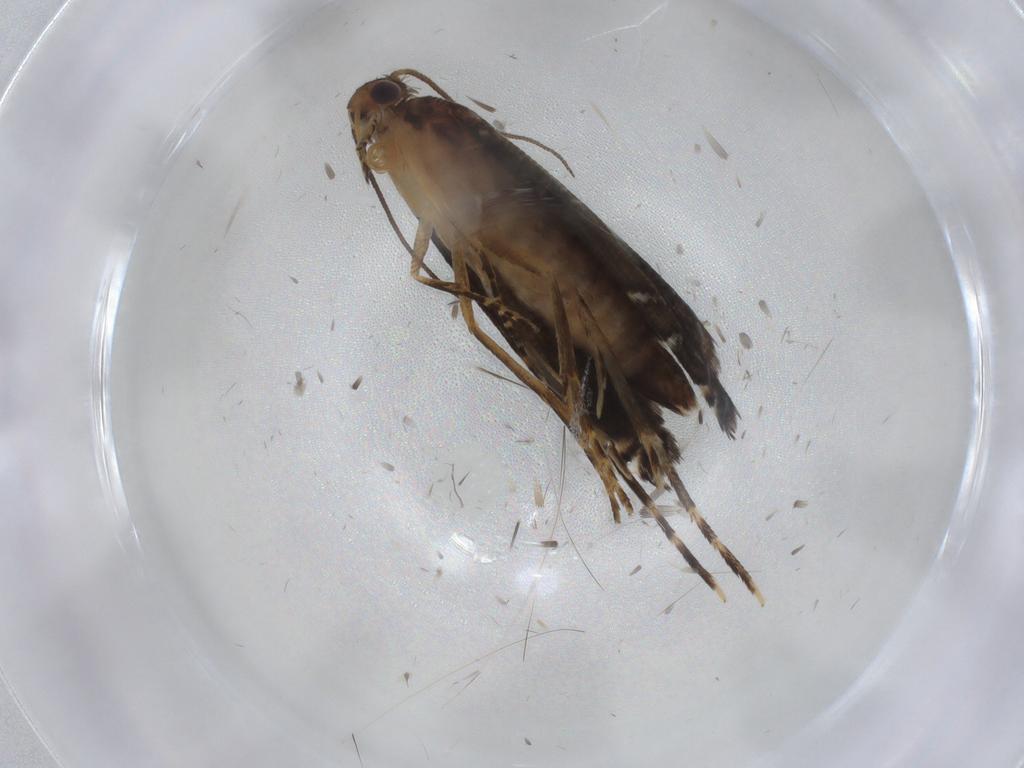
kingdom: Animalia
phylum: Arthropoda
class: Insecta
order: Lepidoptera
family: Glyphipterigidae
